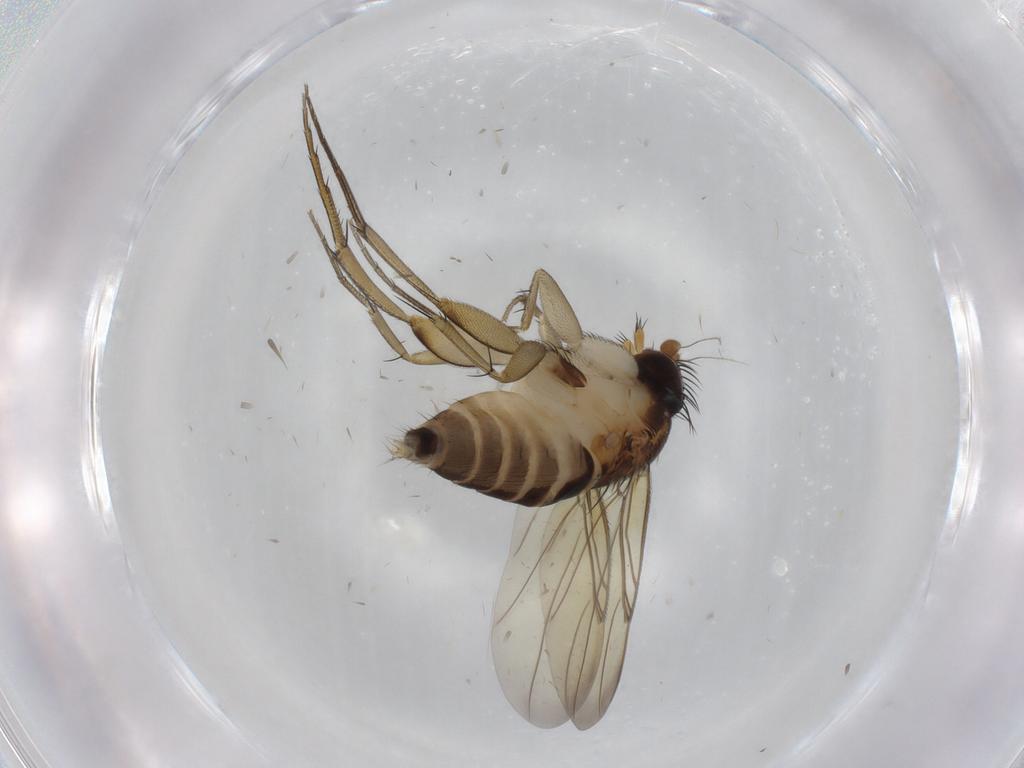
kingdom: Animalia
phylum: Arthropoda
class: Insecta
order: Diptera
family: Phoridae
